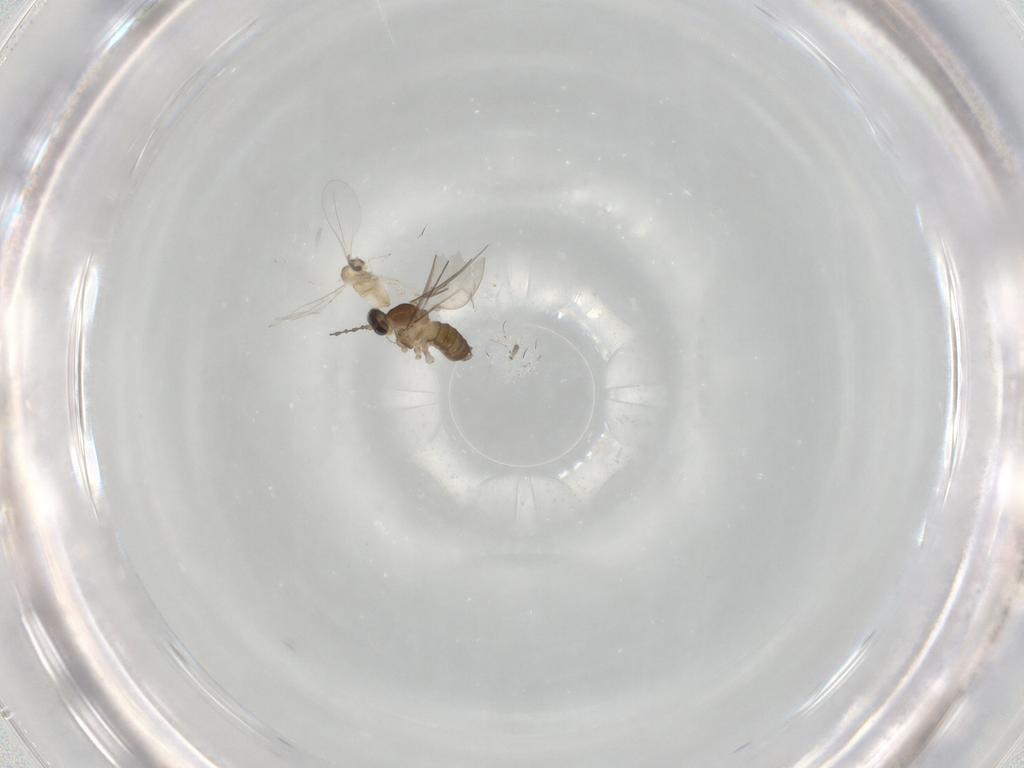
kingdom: Animalia
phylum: Arthropoda
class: Insecta
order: Diptera
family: Cecidomyiidae
